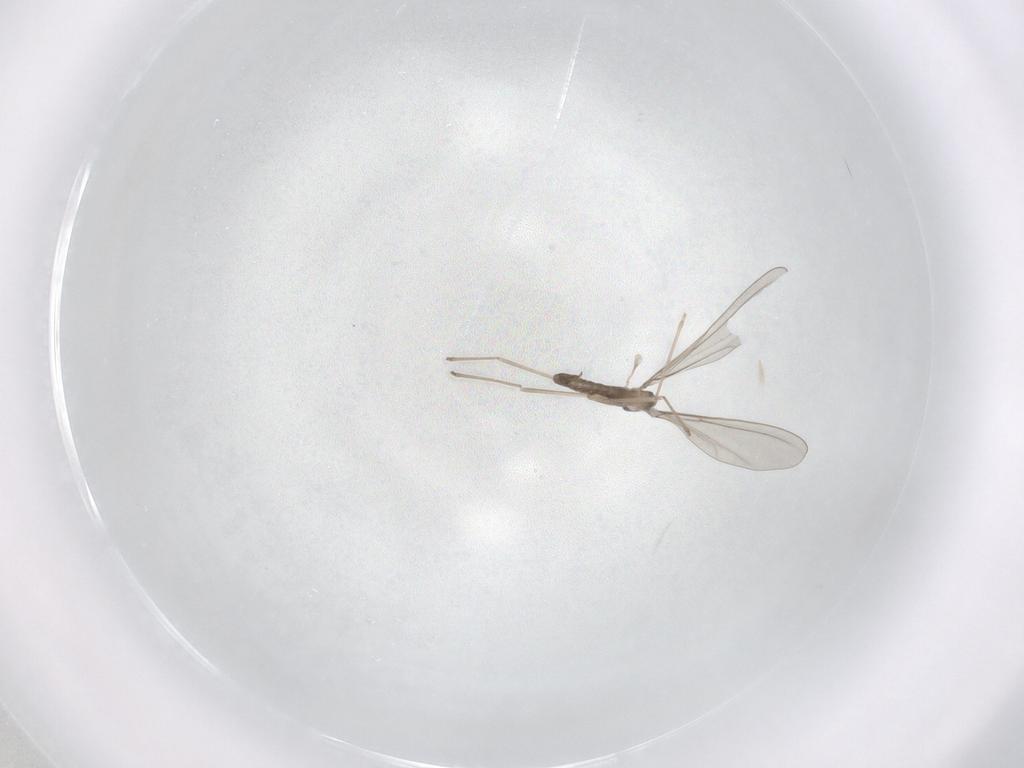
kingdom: Animalia
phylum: Arthropoda
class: Insecta
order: Diptera
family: Cecidomyiidae
